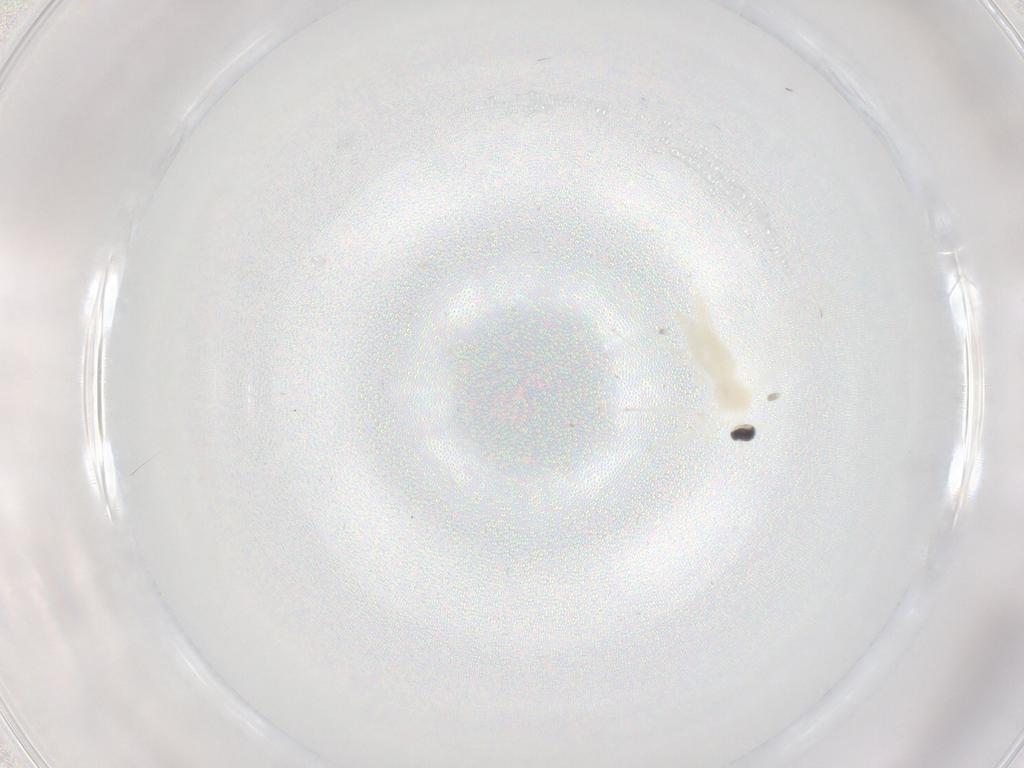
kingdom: Animalia
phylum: Arthropoda
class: Insecta
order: Diptera
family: Cecidomyiidae
